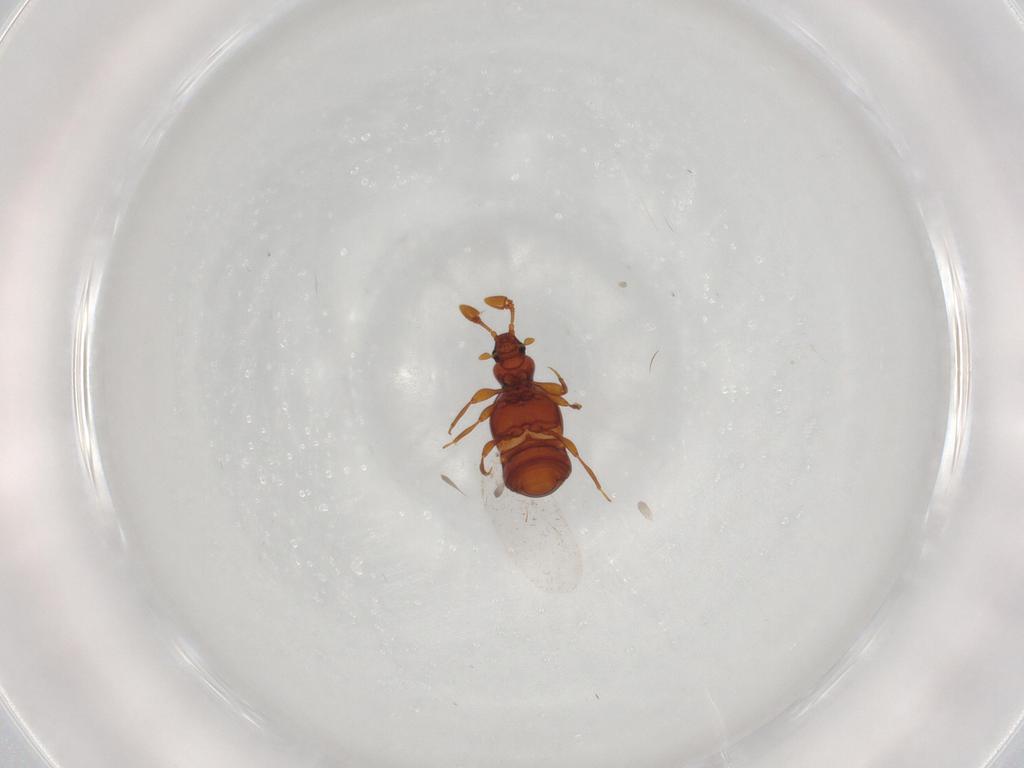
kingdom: Animalia
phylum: Arthropoda
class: Insecta
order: Coleoptera
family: Staphylinidae
